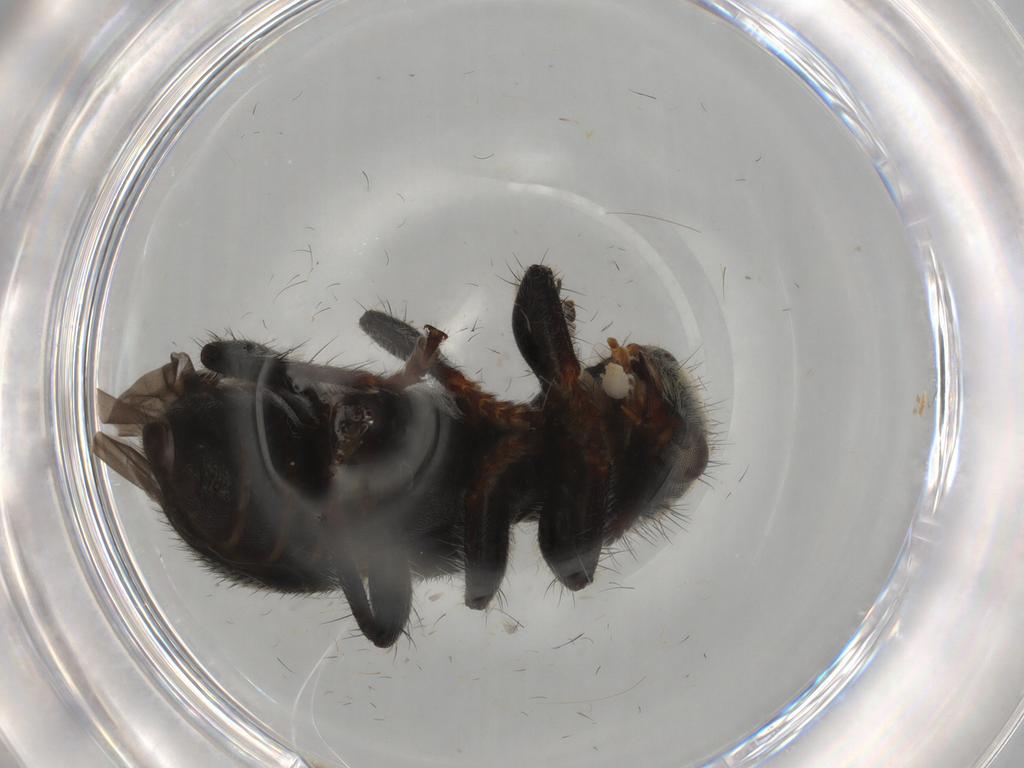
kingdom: Animalia
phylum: Arthropoda
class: Insecta
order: Coleoptera
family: Anthicidae
